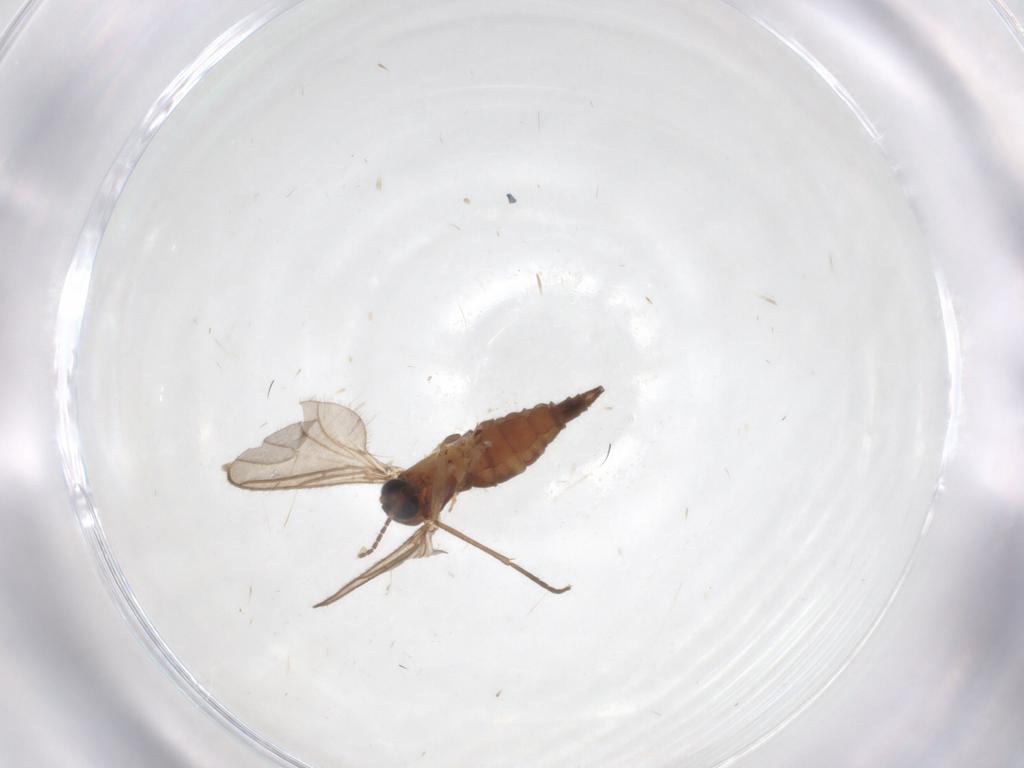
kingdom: Animalia
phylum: Arthropoda
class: Insecta
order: Diptera
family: Sciaridae
